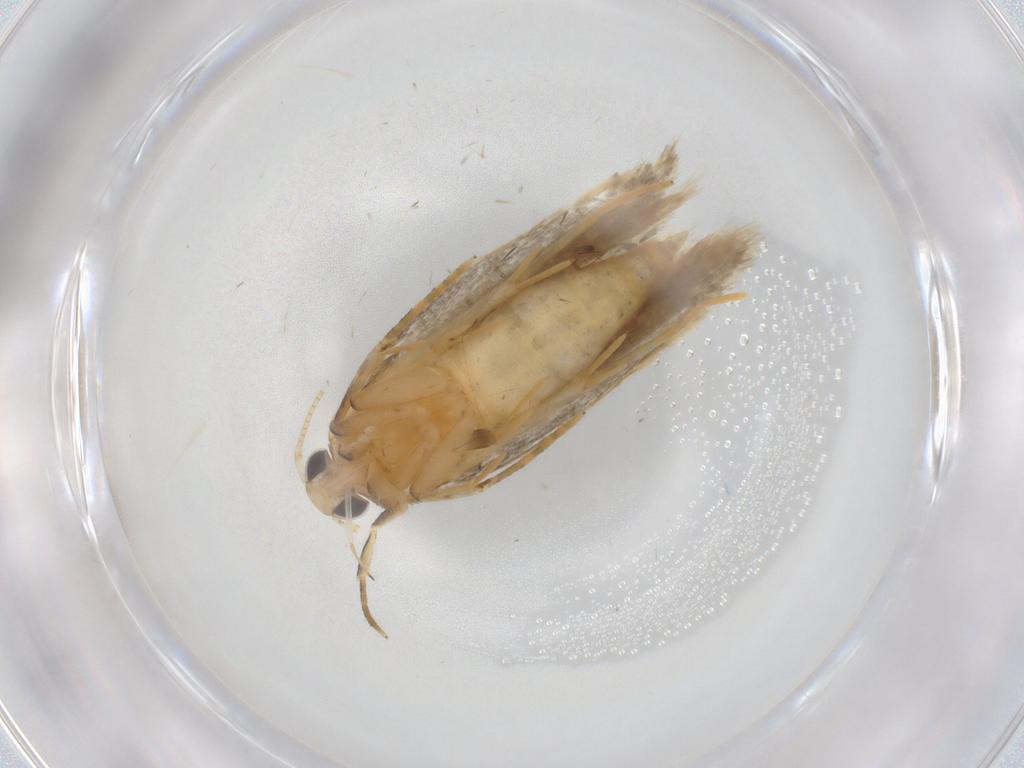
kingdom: Animalia
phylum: Arthropoda
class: Insecta
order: Lepidoptera
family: Autostichidae
